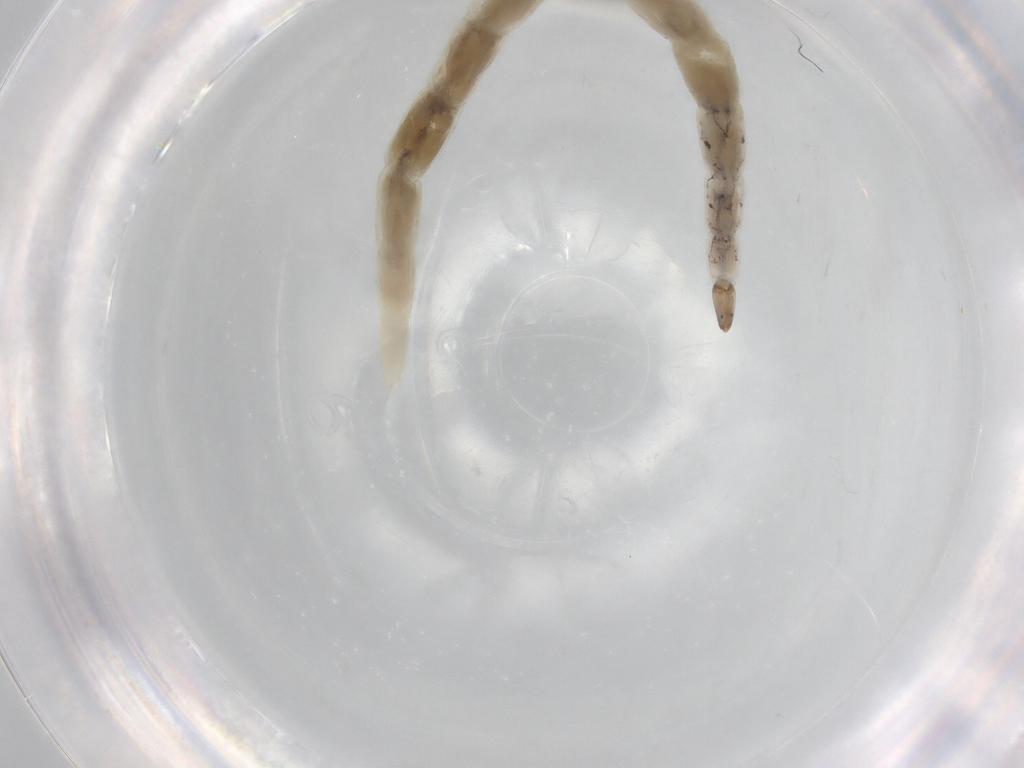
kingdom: Animalia
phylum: Arthropoda
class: Insecta
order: Diptera
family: Ceratopogonidae
